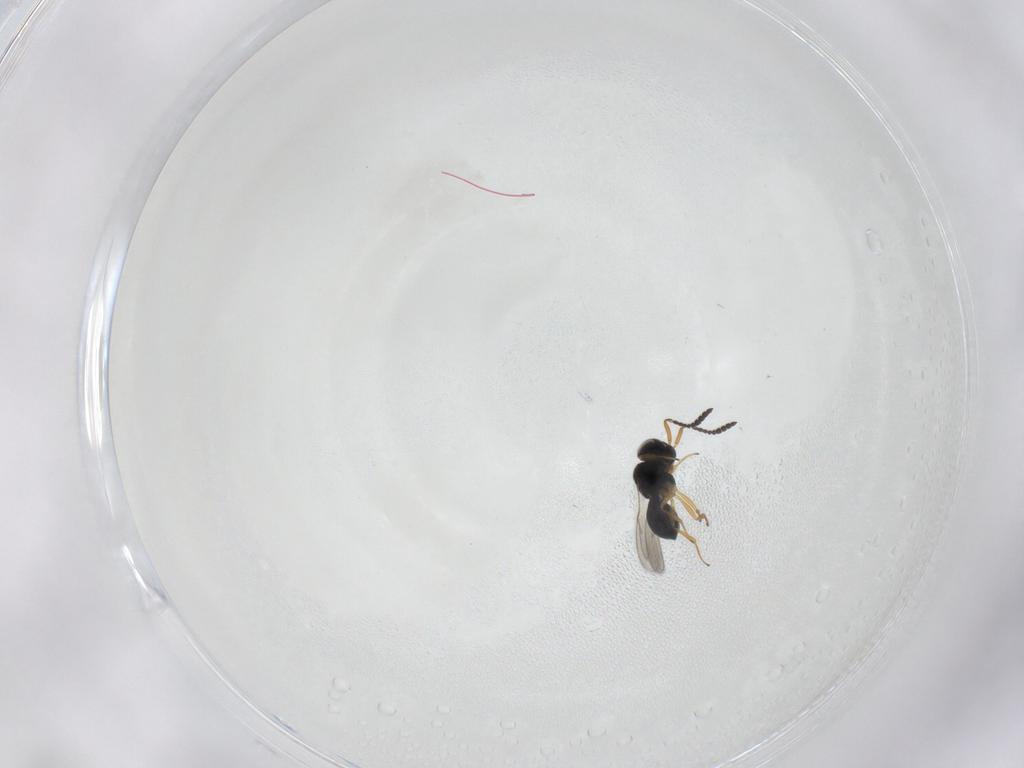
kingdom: Animalia
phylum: Arthropoda
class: Insecta
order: Hymenoptera
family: Scelionidae
